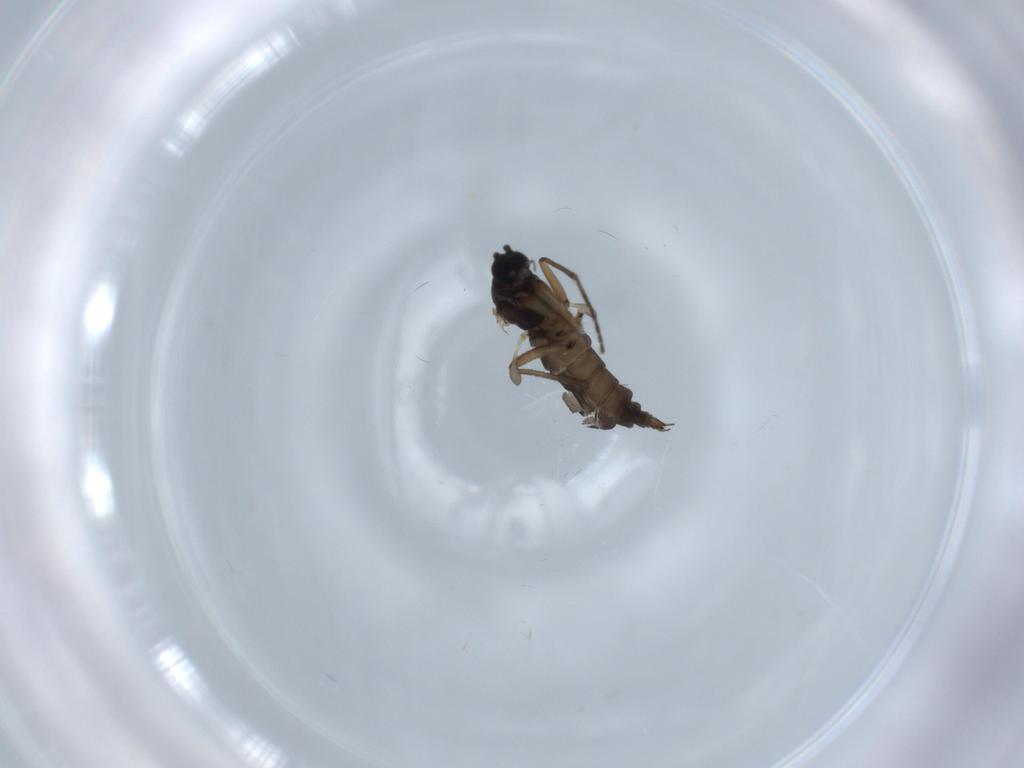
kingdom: Animalia
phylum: Arthropoda
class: Insecta
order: Diptera
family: Sciaridae
